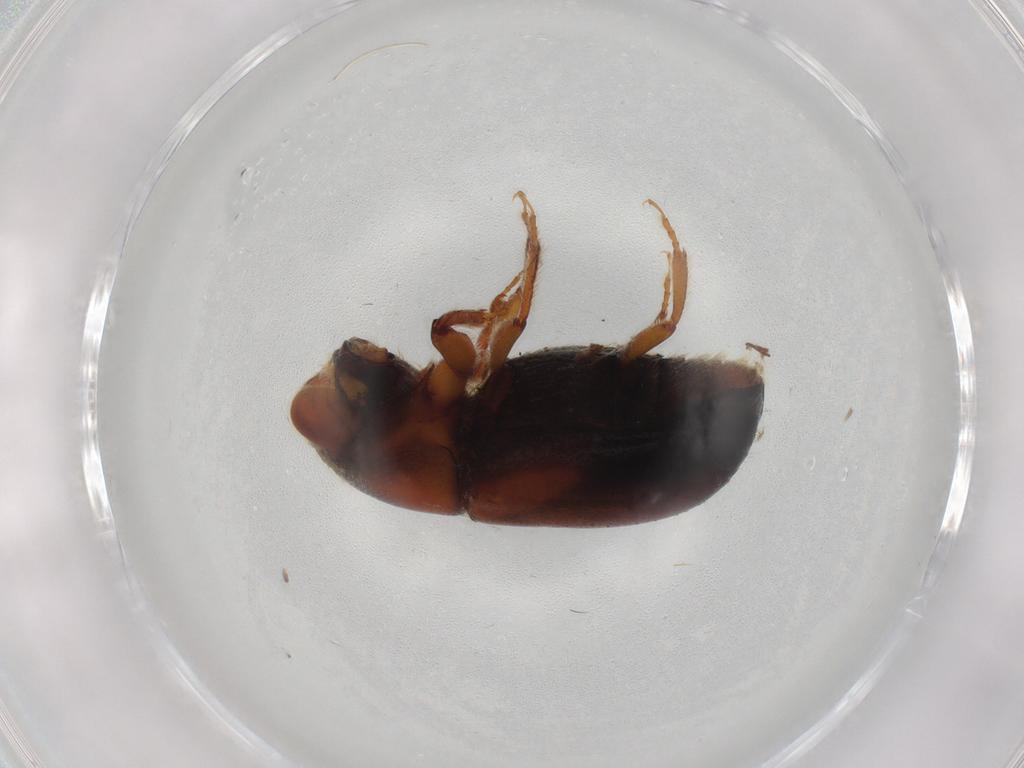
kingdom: Animalia
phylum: Arthropoda
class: Insecta
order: Coleoptera
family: Curculionidae
